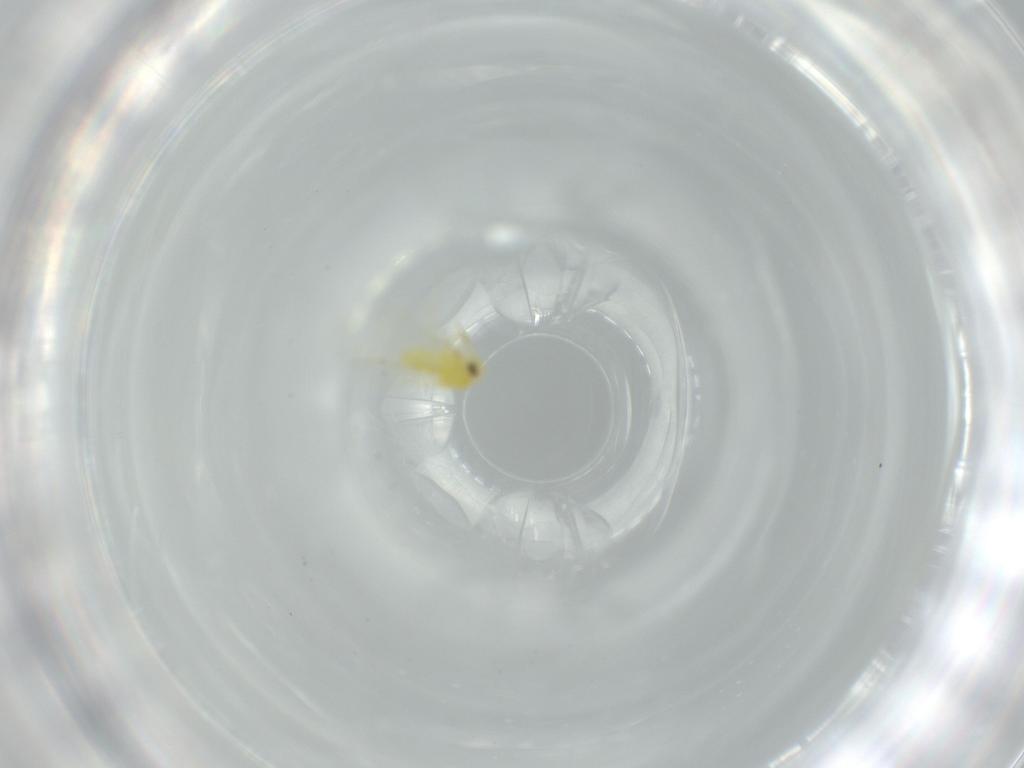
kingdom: Animalia
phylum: Arthropoda
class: Insecta
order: Hemiptera
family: Aleyrodidae
